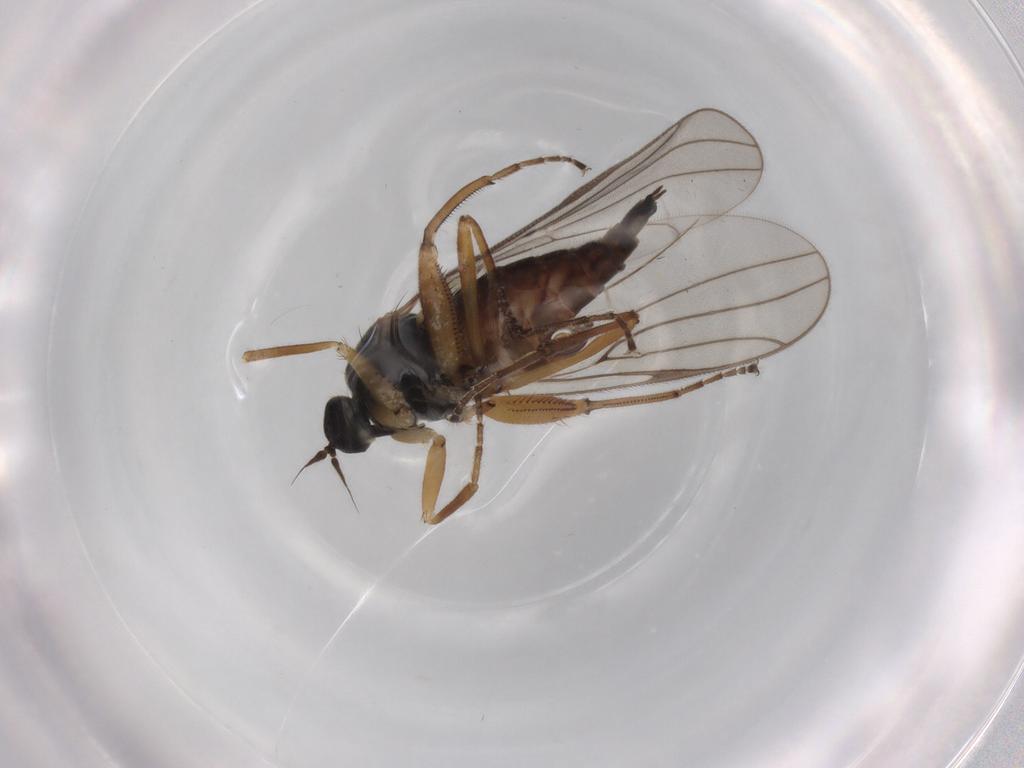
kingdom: Animalia
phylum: Arthropoda
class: Insecta
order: Diptera
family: Hybotidae
